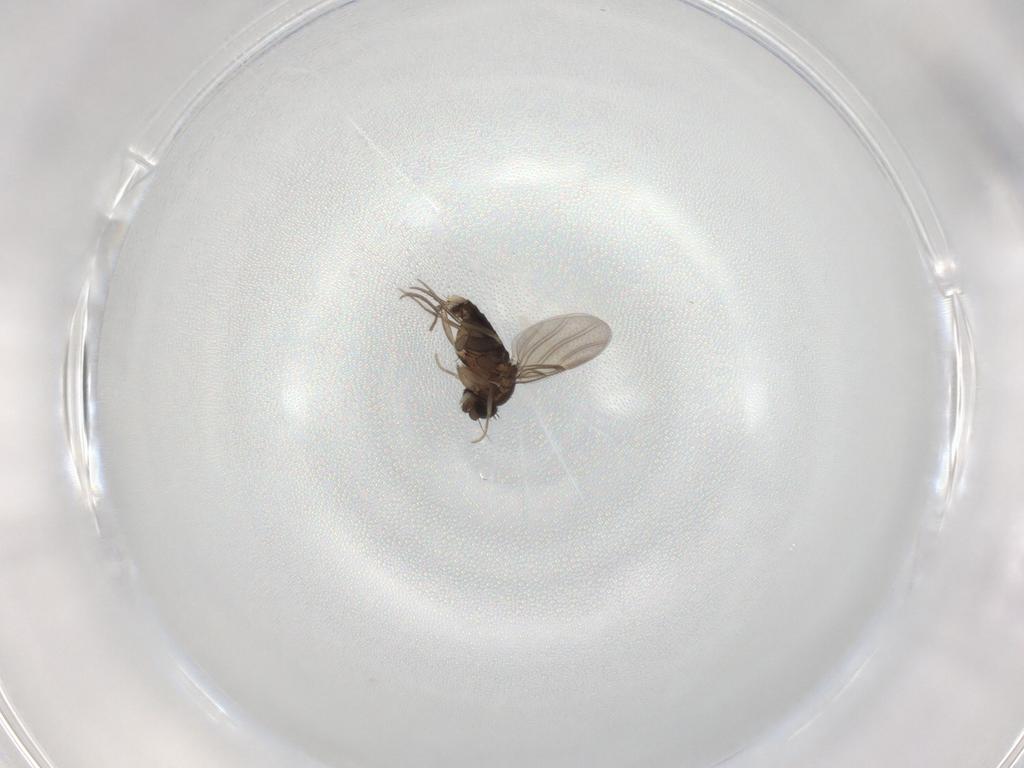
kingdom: Animalia
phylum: Arthropoda
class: Insecta
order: Diptera
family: Phoridae
